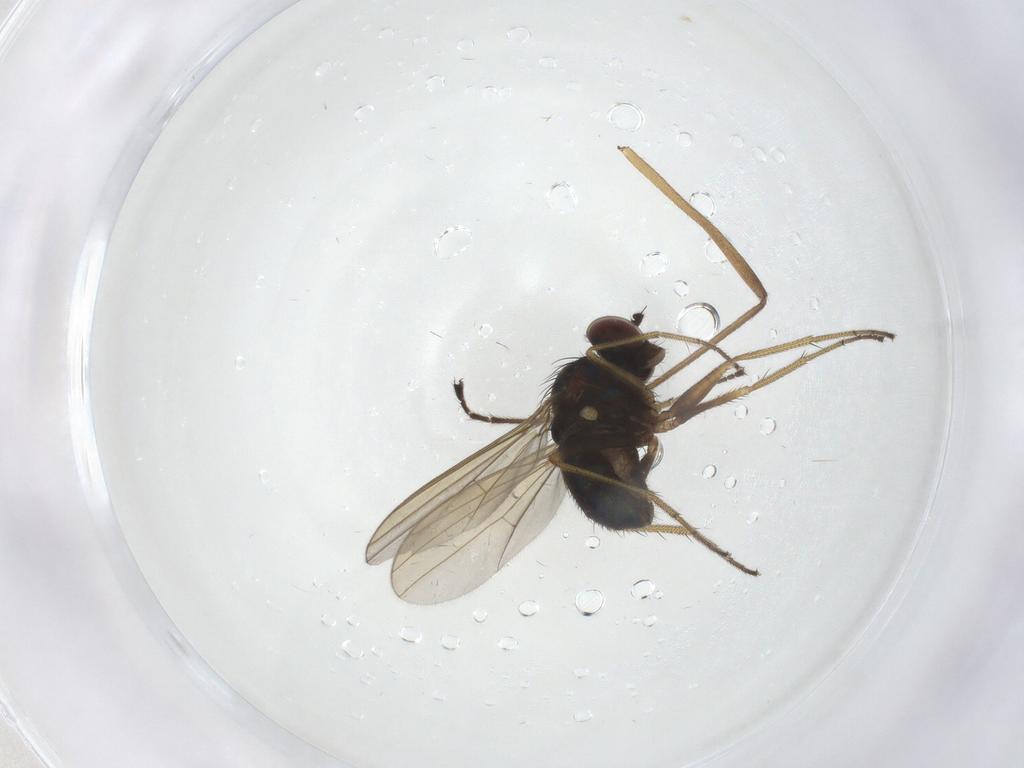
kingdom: Animalia
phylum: Arthropoda
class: Insecta
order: Diptera
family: Dolichopodidae
